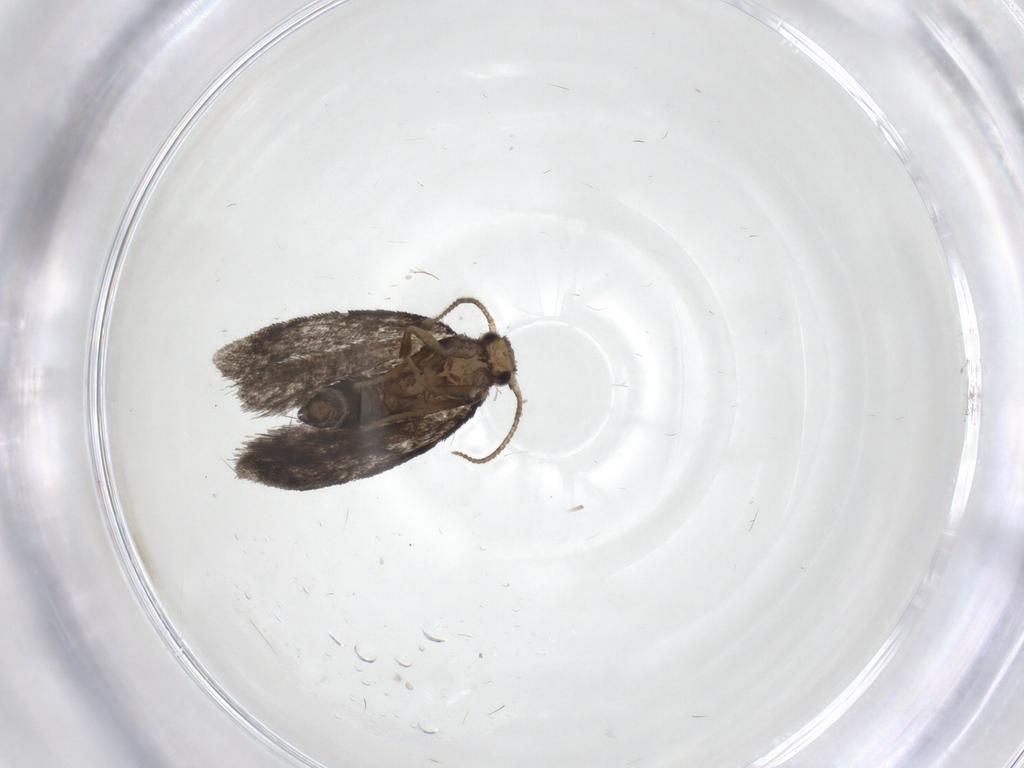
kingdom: Animalia
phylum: Arthropoda
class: Insecta
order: Lepidoptera
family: Psychidae
